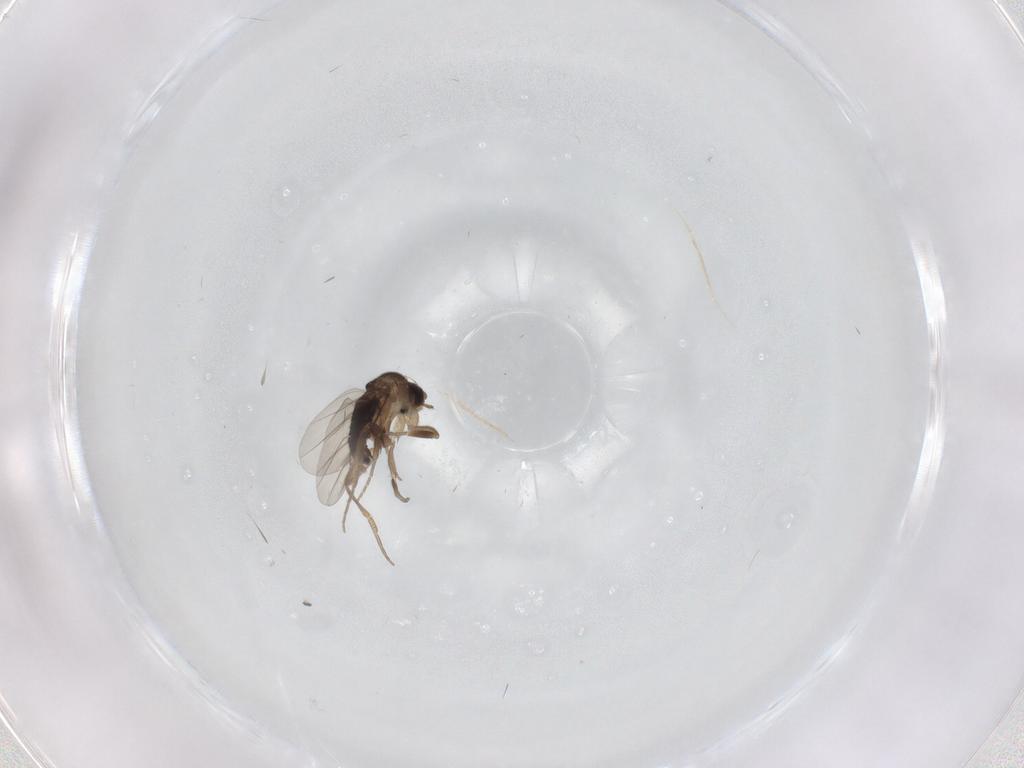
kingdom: Animalia
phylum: Arthropoda
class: Insecta
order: Diptera
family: Phoridae
